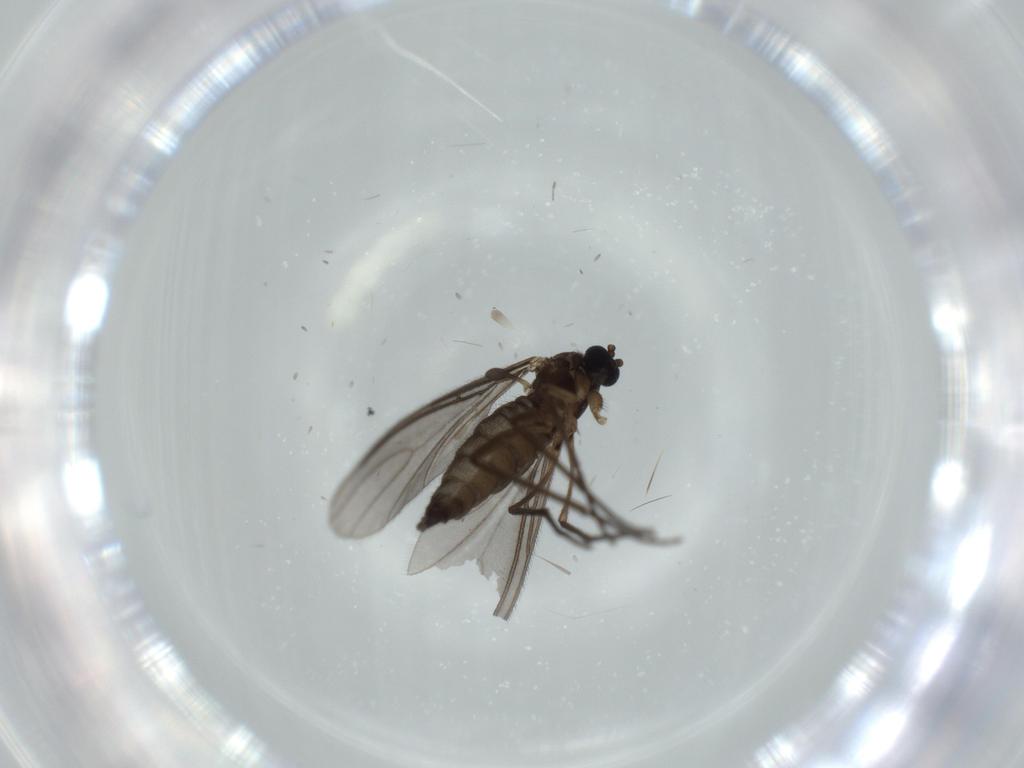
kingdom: Animalia
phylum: Arthropoda
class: Insecta
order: Diptera
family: Sciaridae
